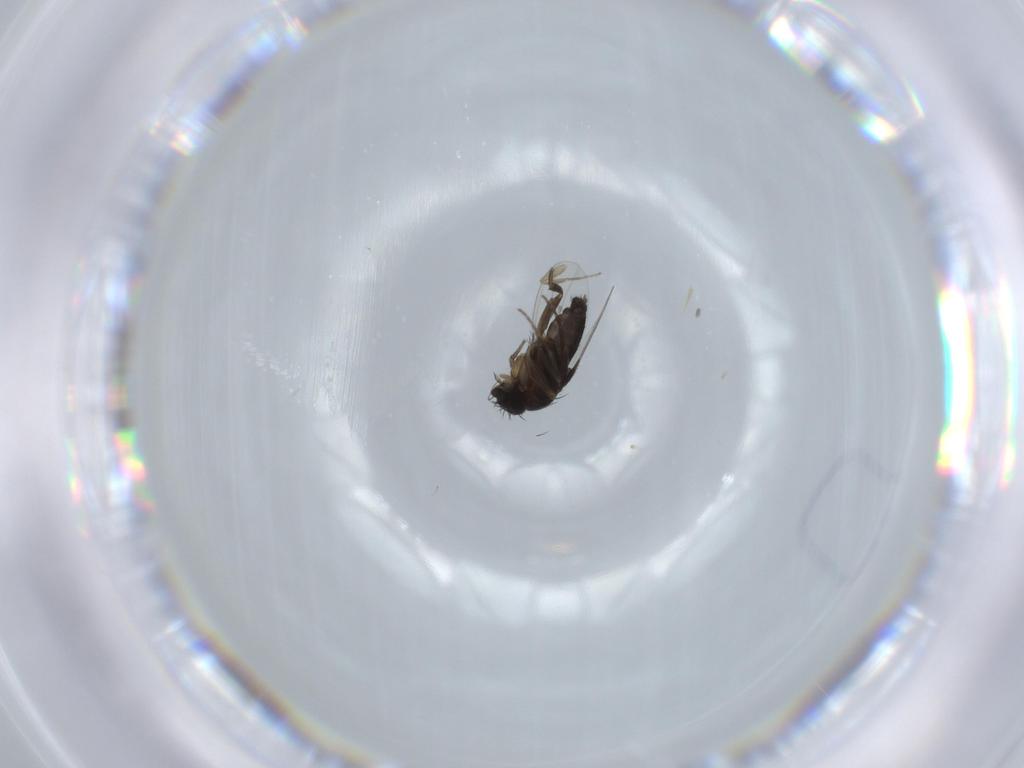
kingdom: Animalia
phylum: Arthropoda
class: Insecta
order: Diptera
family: Phoridae
